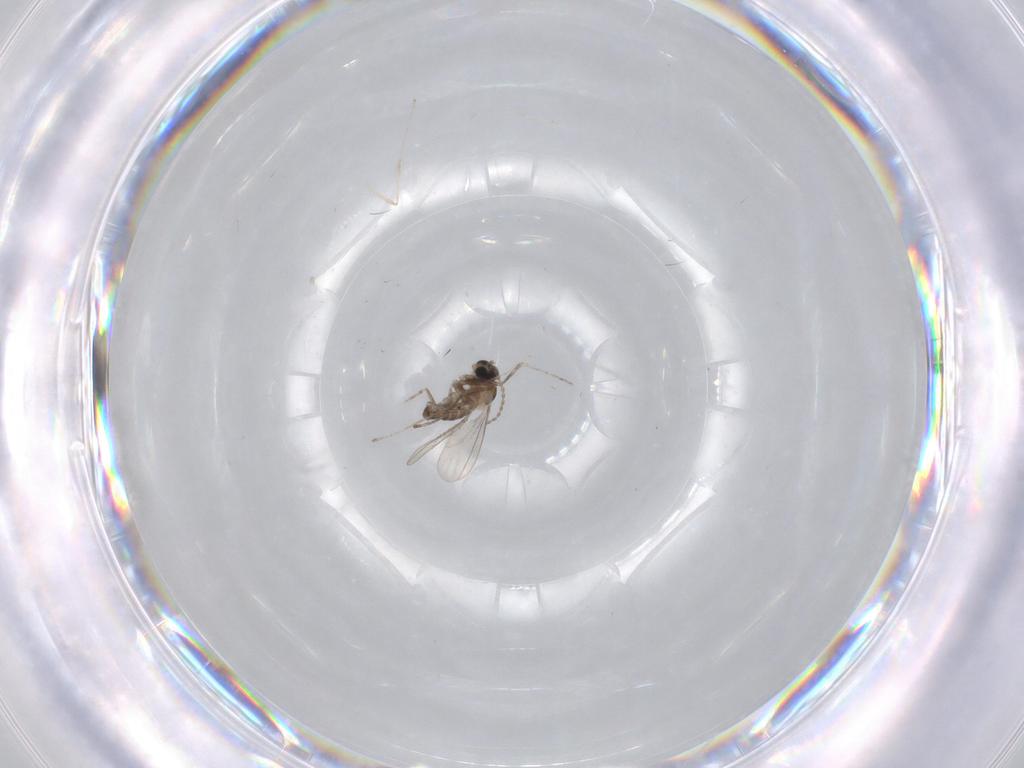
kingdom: Animalia
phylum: Arthropoda
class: Insecta
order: Diptera
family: Cecidomyiidae
